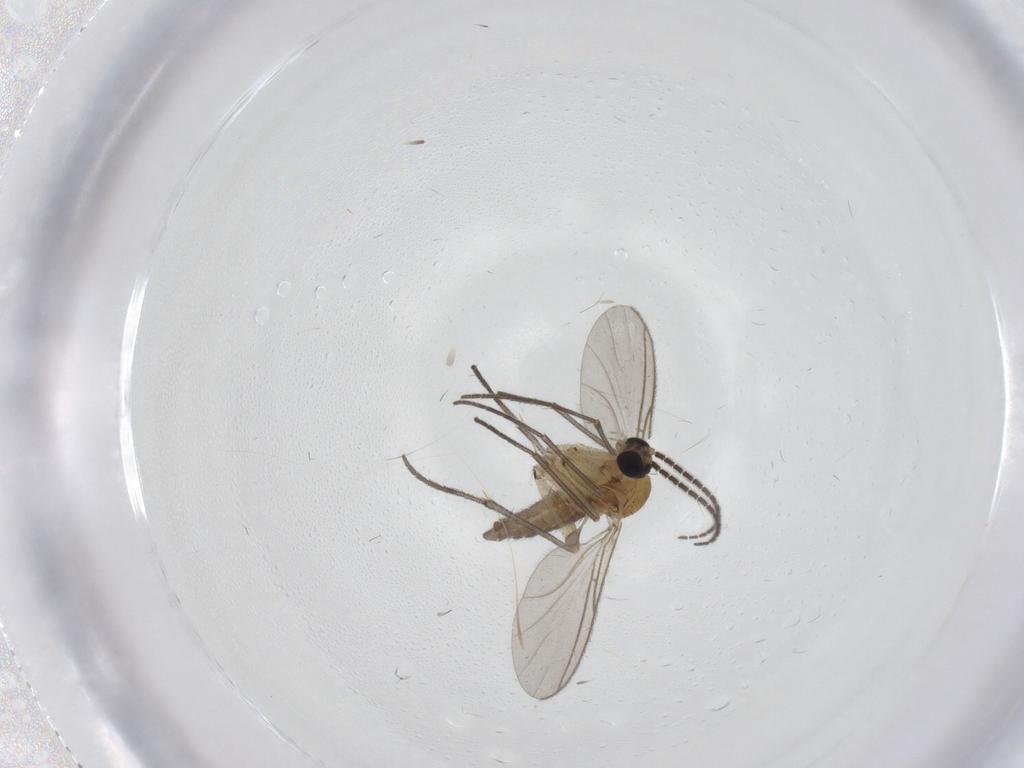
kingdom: Animalia
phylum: Arthropoda
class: Insecta
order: Diptera
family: Sciaridae
